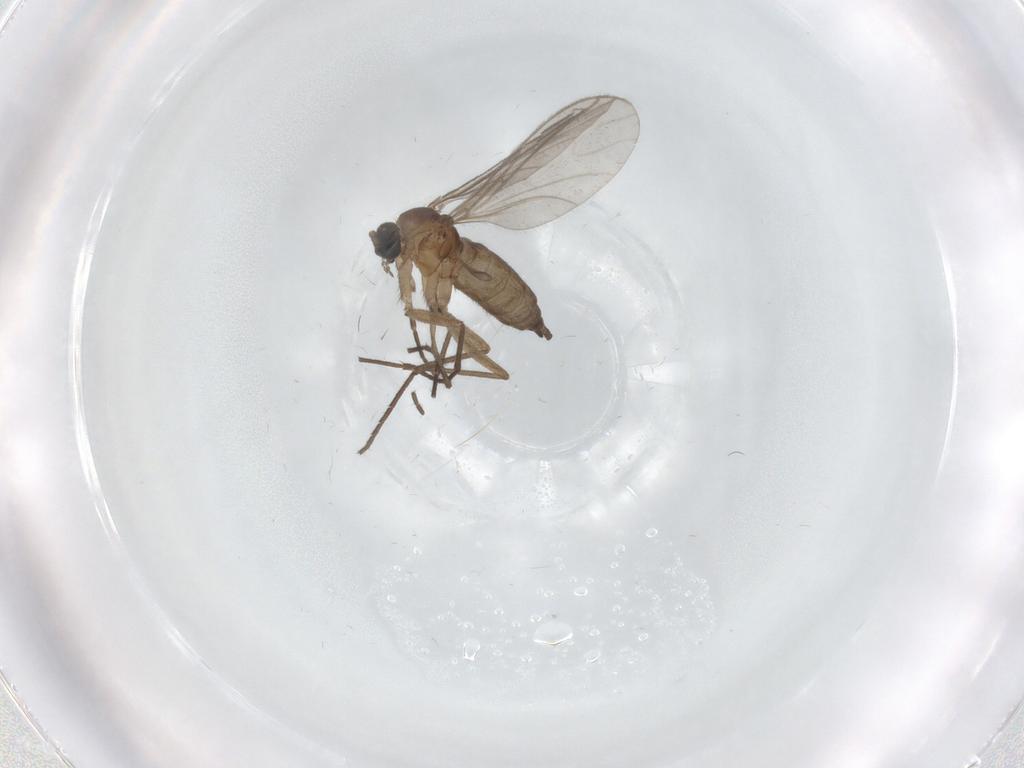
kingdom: Animalia
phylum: Arthropoda
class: Insecta
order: Diptera
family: Sciaridae
